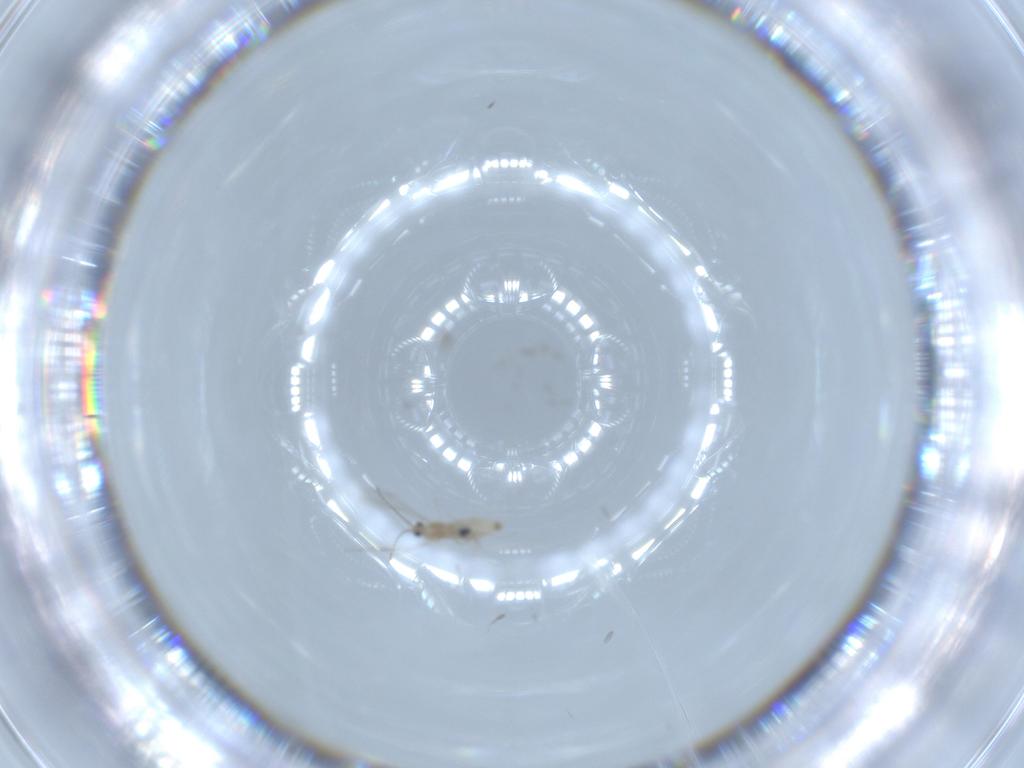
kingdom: Animalia
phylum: Arthropoda
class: Insecta
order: Diptera
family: Cecidomyiidae
